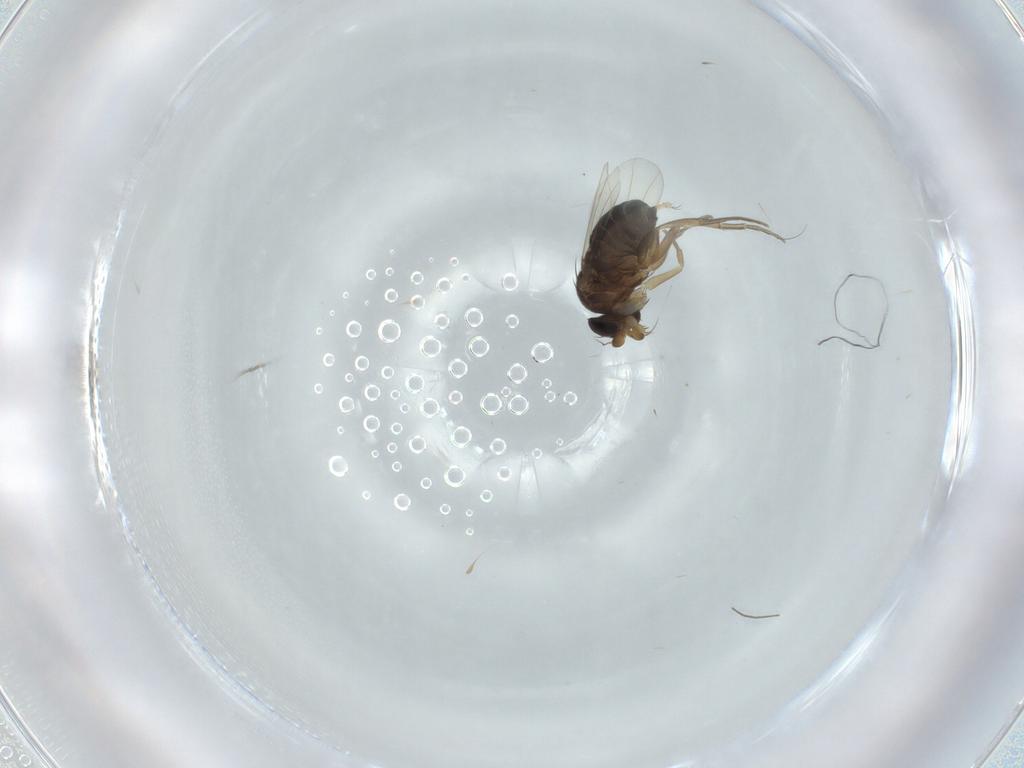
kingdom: Animalia
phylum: Arthropoda
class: Insecta
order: Diptera
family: Phoridae
